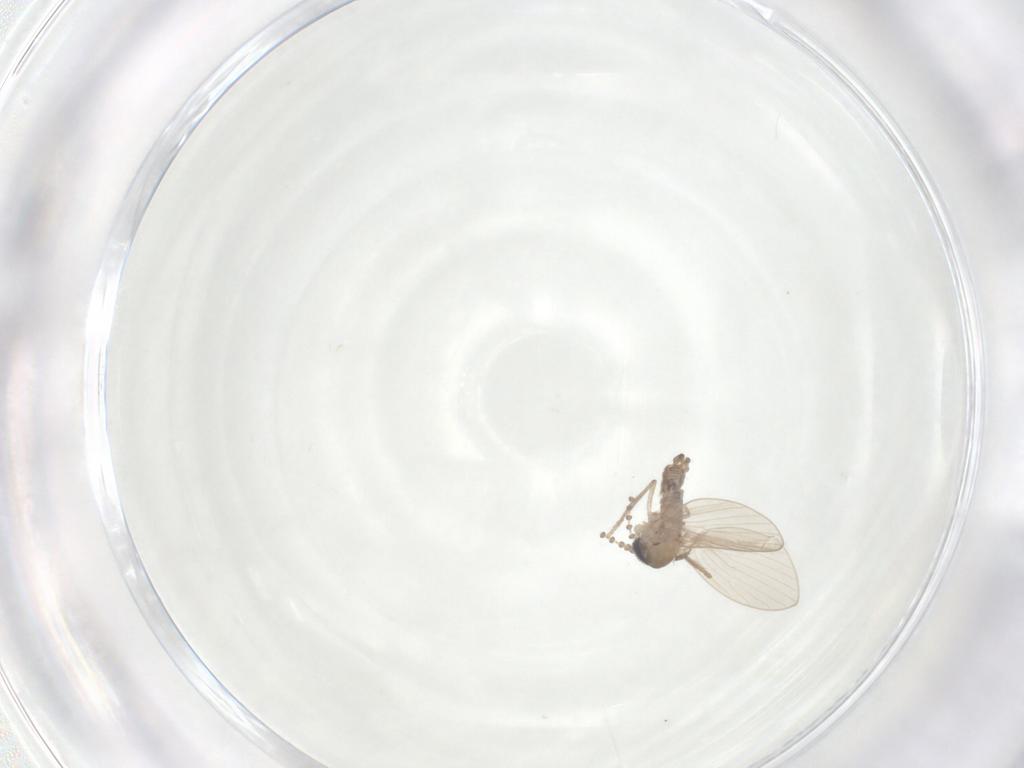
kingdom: Animalia
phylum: Arthropoda
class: Insecta
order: Diptera
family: Psychodidae
